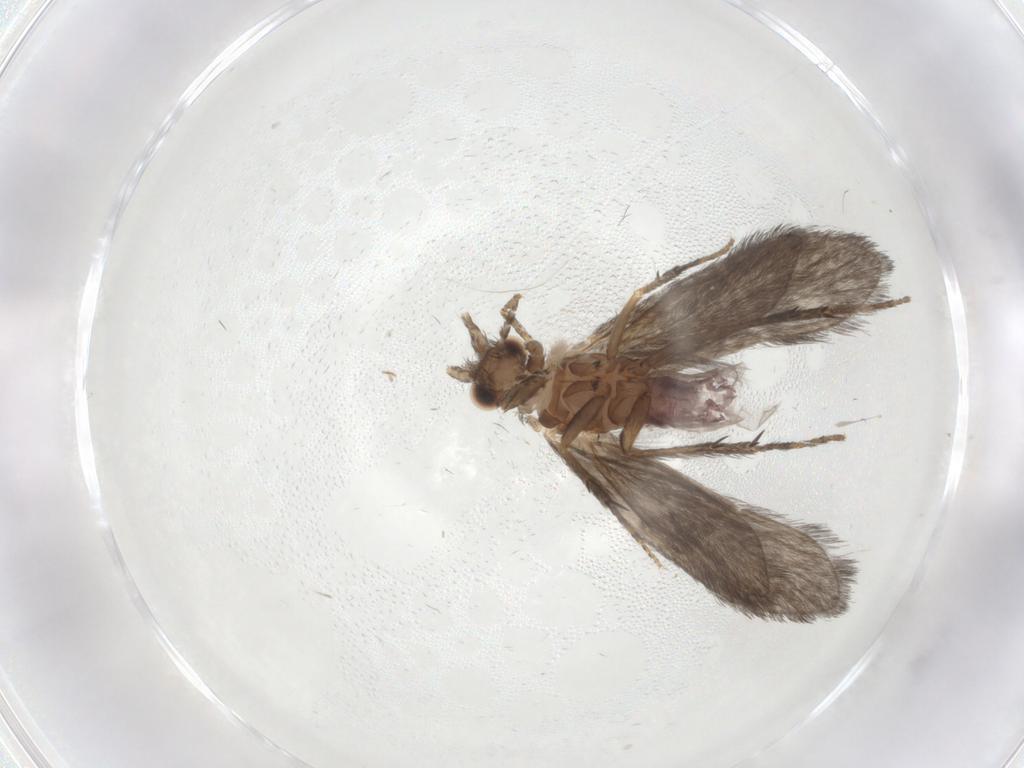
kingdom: Animalia
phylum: Arthropoda
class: Insecta
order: Trichoptera
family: Glossosomatidae
